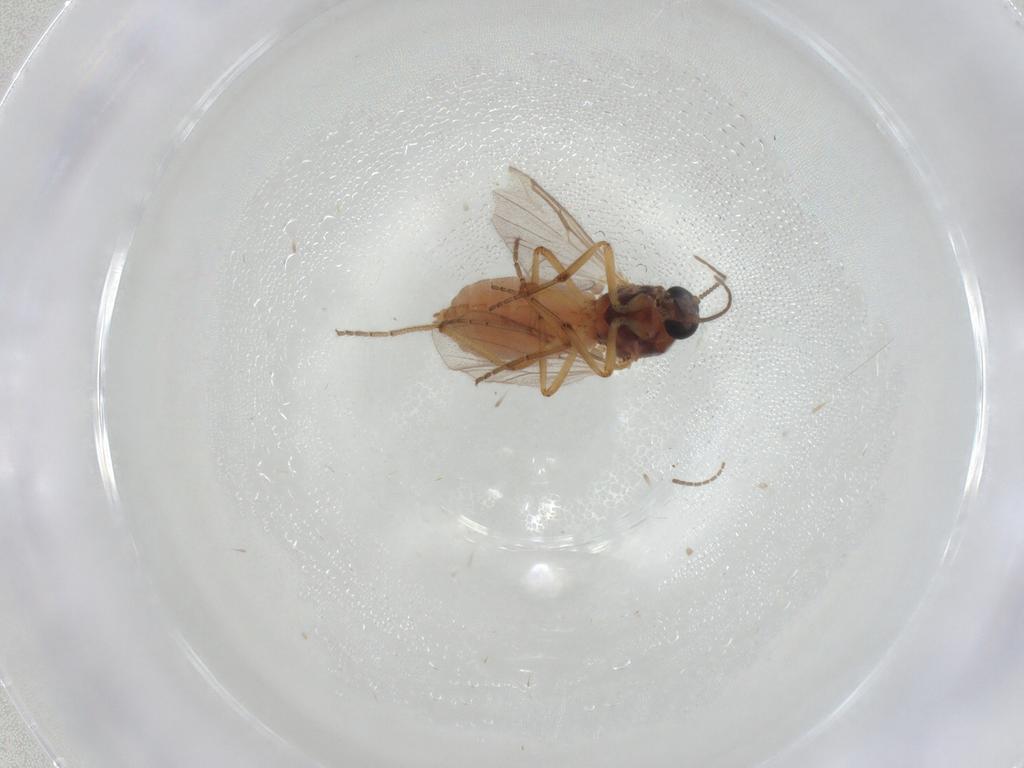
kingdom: Animalia
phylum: Arthropoda
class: Insecta
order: Diptera
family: Ceratopogonidae
